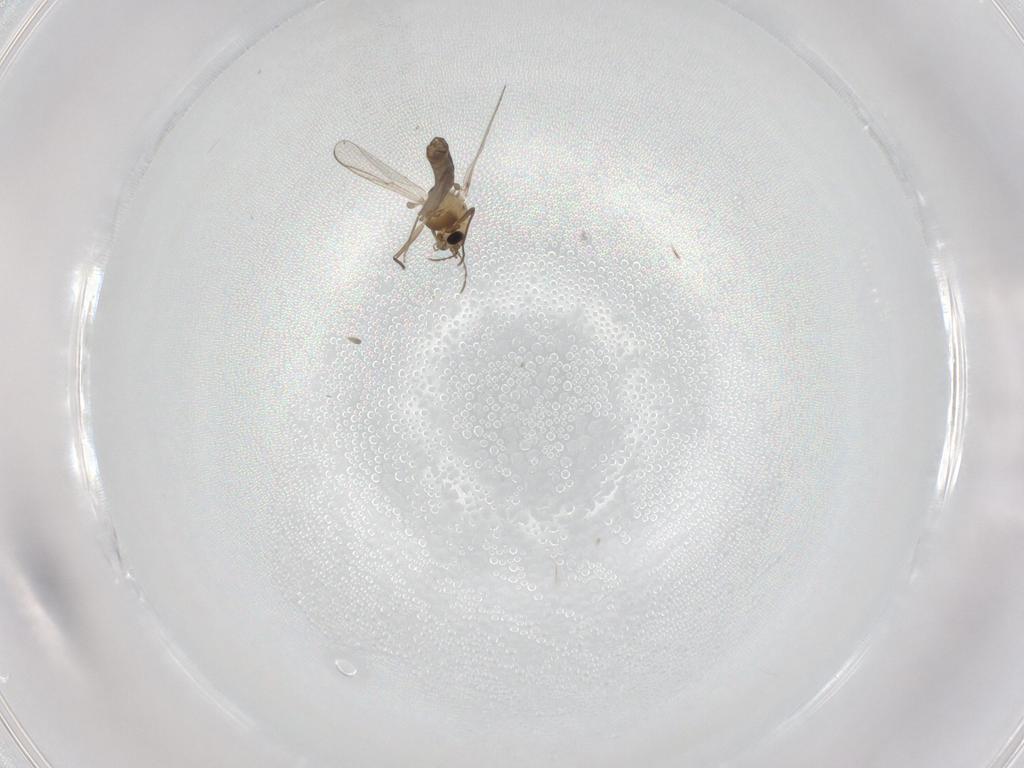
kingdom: Animalia
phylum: Arthropoda
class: Insecta
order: Diptera
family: Chironomidae
